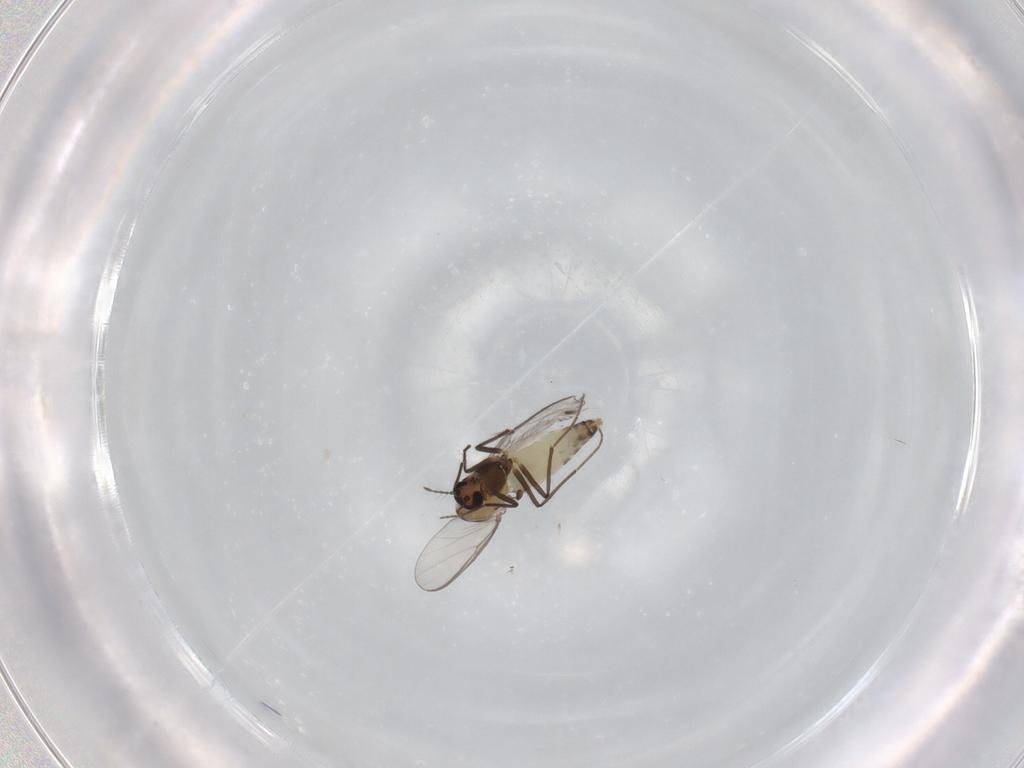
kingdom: Animalia
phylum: Arthropoda
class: Insecta
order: Diptera
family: Chironomidae
